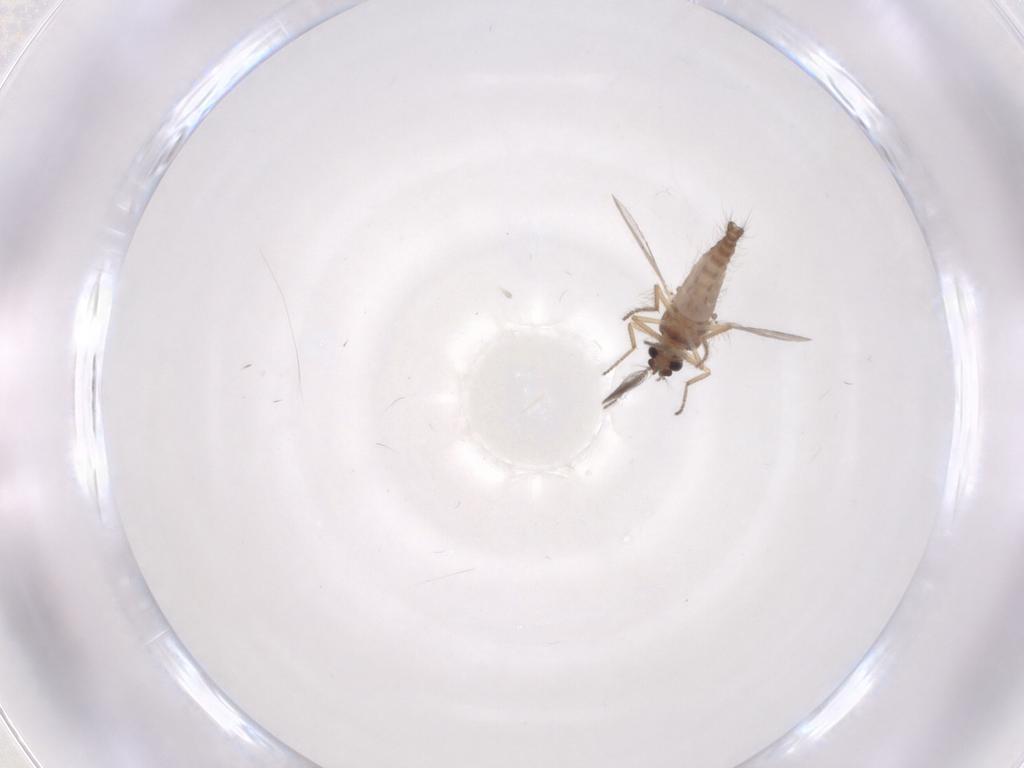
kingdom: Animalia
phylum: Arthropoda
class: Insecta
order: Diptera
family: Ceratopogonidae
